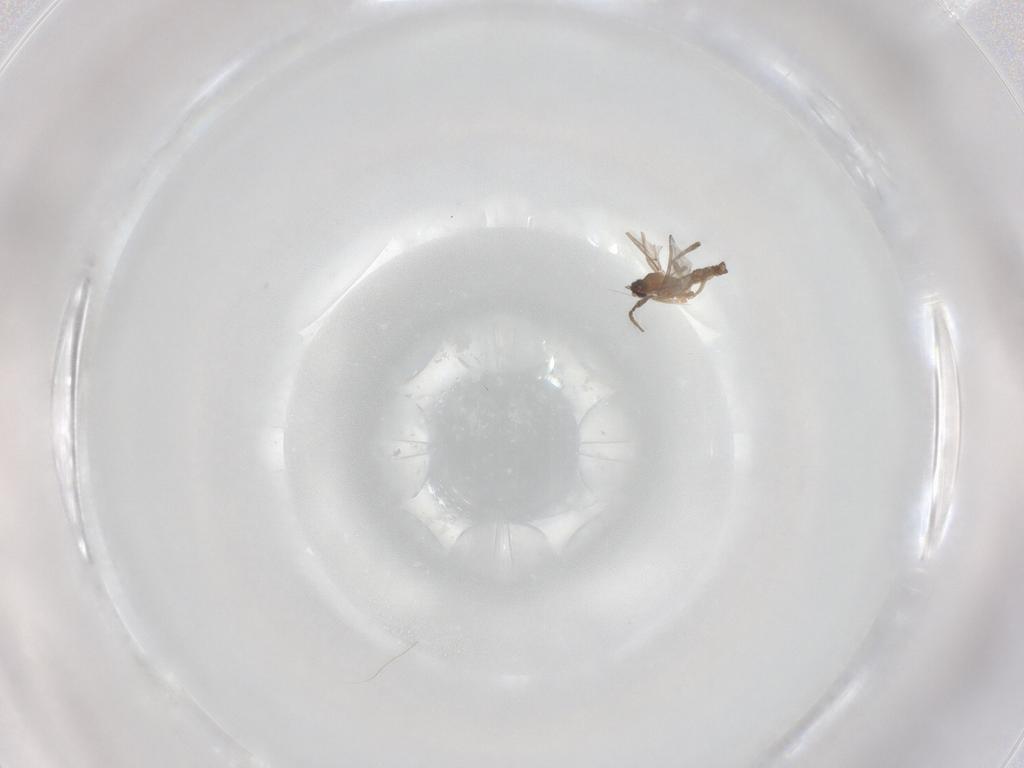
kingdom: Animalia
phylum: Arthropoda
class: Insecta
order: Diptera
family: Cecidomyiidae
